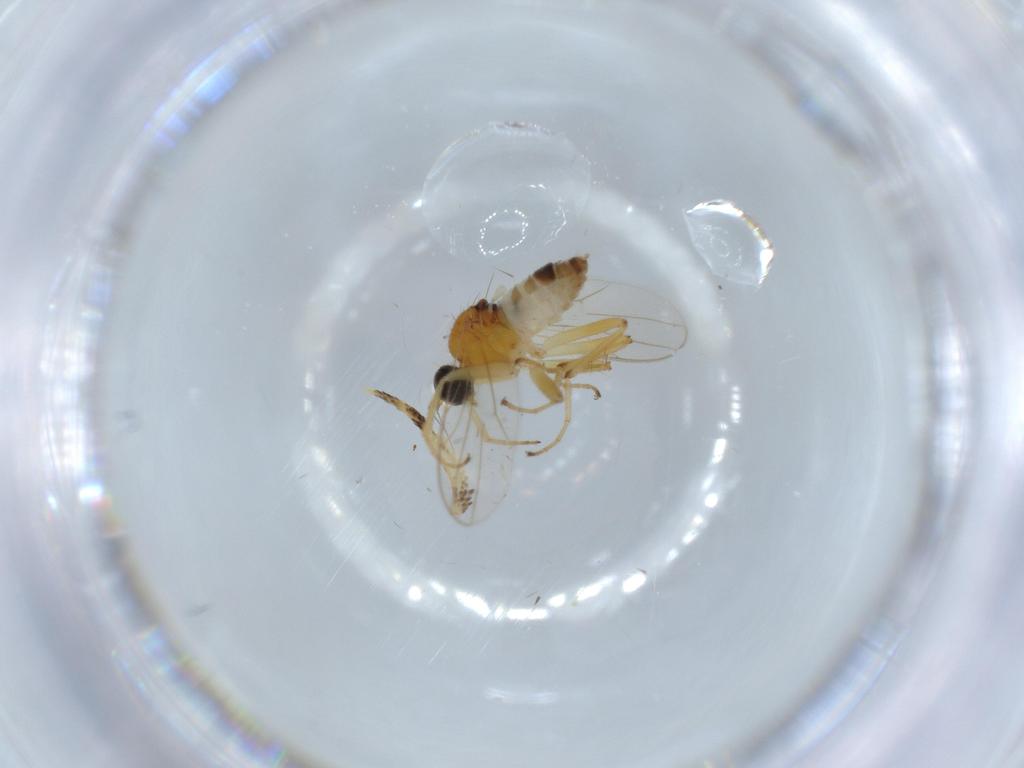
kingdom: Animalia
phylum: Arthropoda
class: Insecta
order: Diptera
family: Hybotidae
